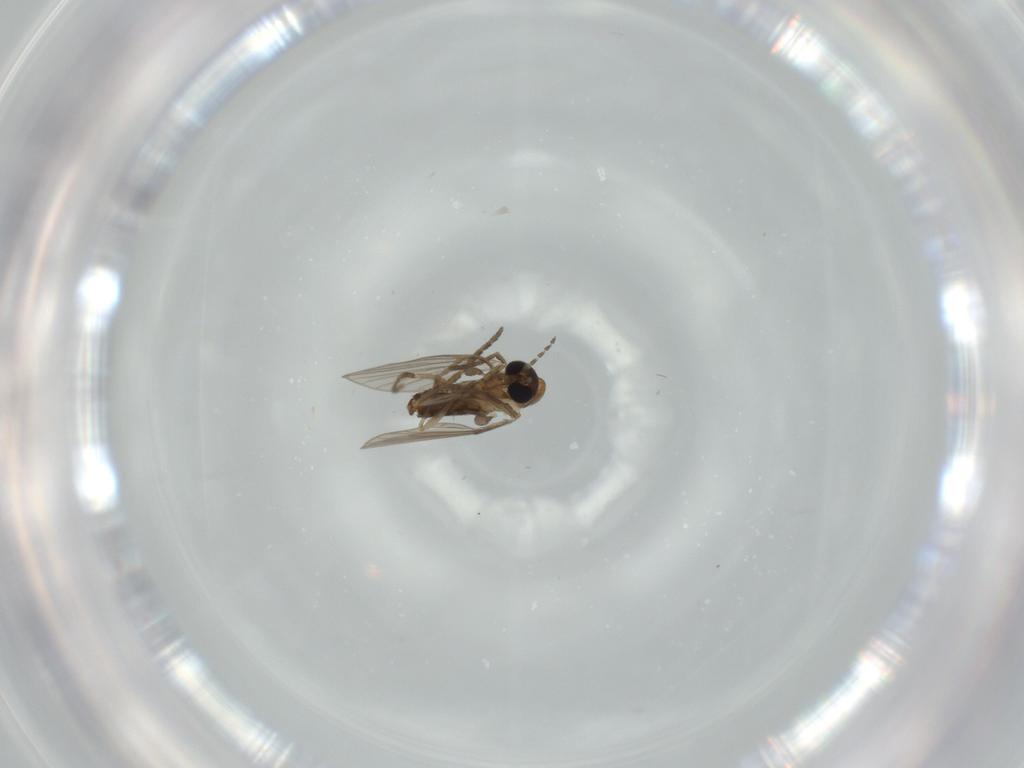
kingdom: Animalia
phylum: Arthropoda
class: Insecta
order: Diptera
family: Psychodidae
